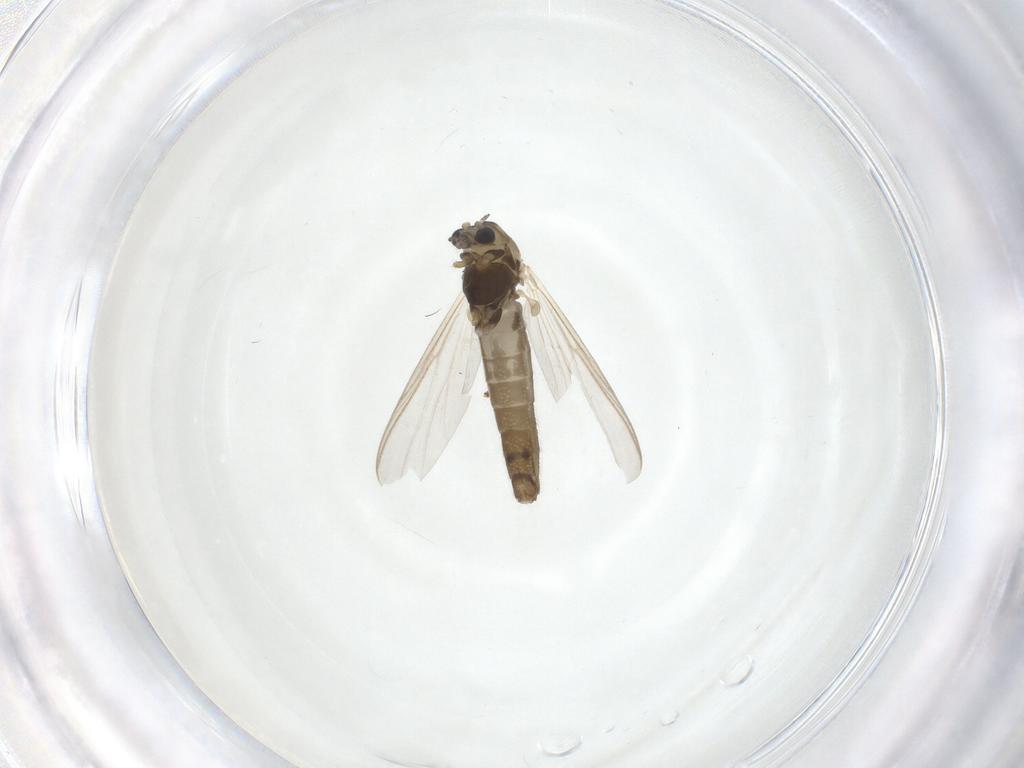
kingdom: Animalia
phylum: Arthropoda
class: Insecta
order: Diptera
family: Chironomidae
